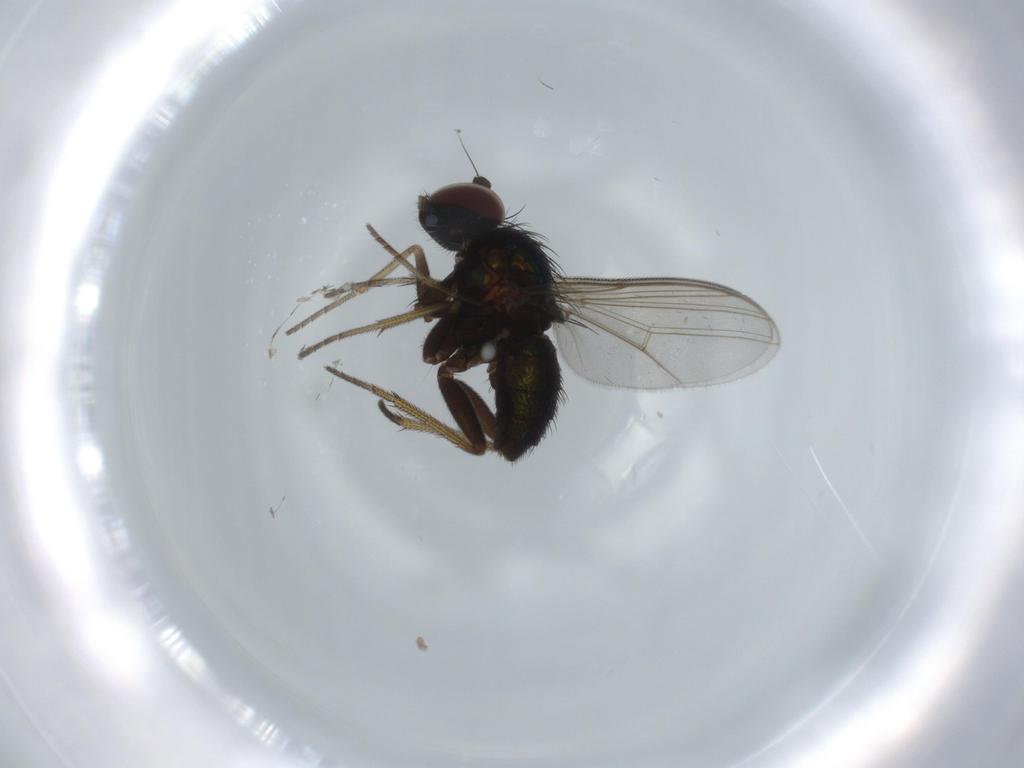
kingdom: Animalia
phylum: Arthropoda
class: Insecta
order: Diptera
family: Dolichopodidae
